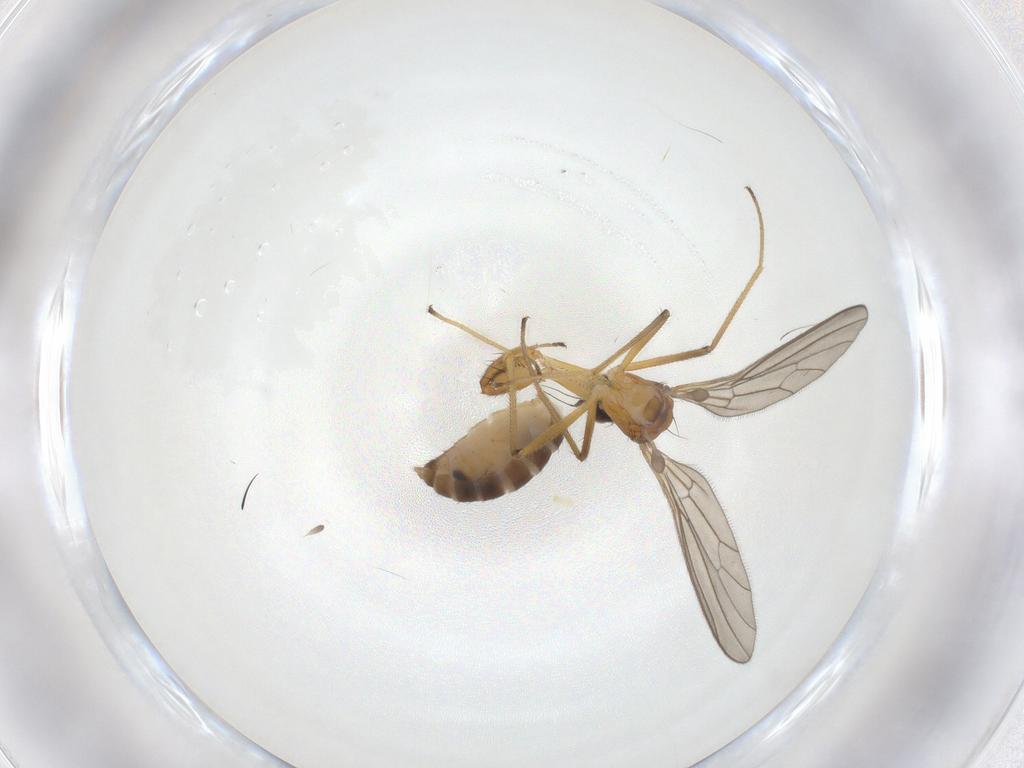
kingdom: Animalia
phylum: Arthropoda
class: Insecta
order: Diptera
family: Empididae
